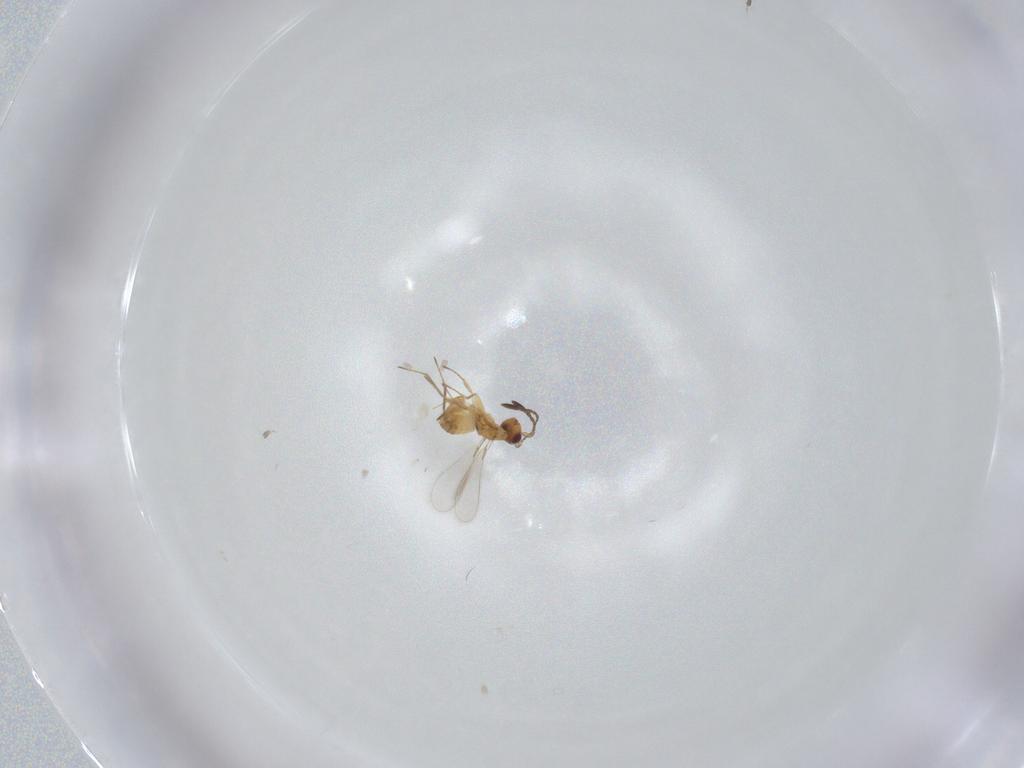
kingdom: Animalia
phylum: Arthropoda
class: Insecta
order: Hymenoptera
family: Mymaridae
